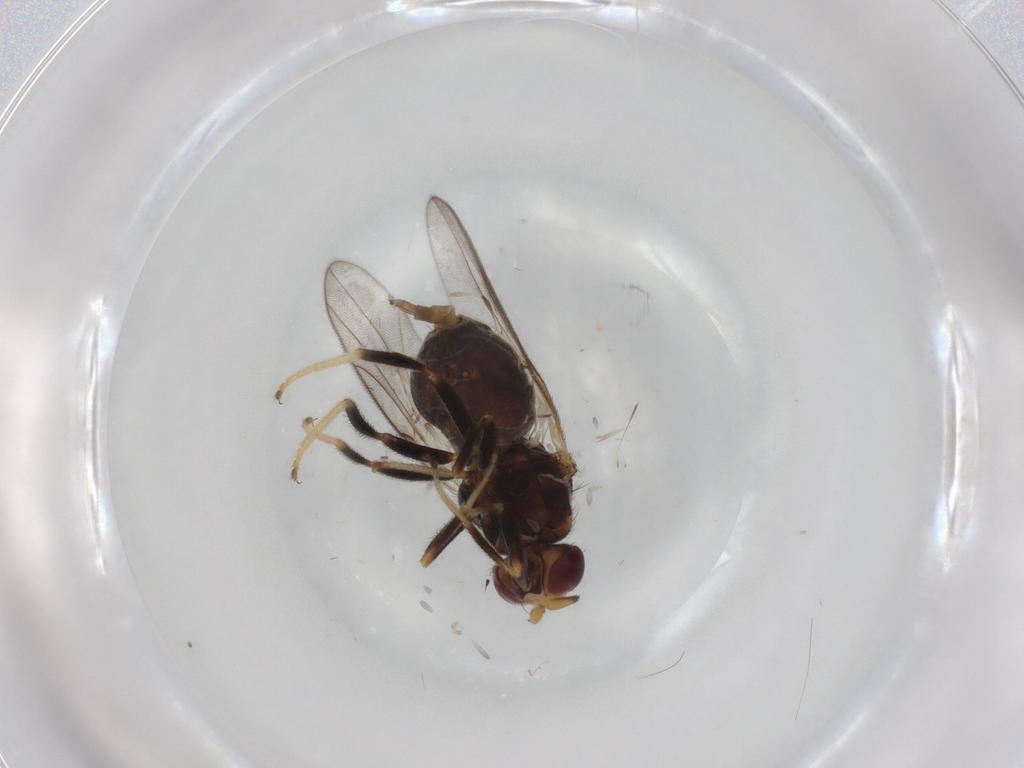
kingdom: Animalia
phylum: Arthropoda
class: Insecta
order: Diptera
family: Chloropidae
